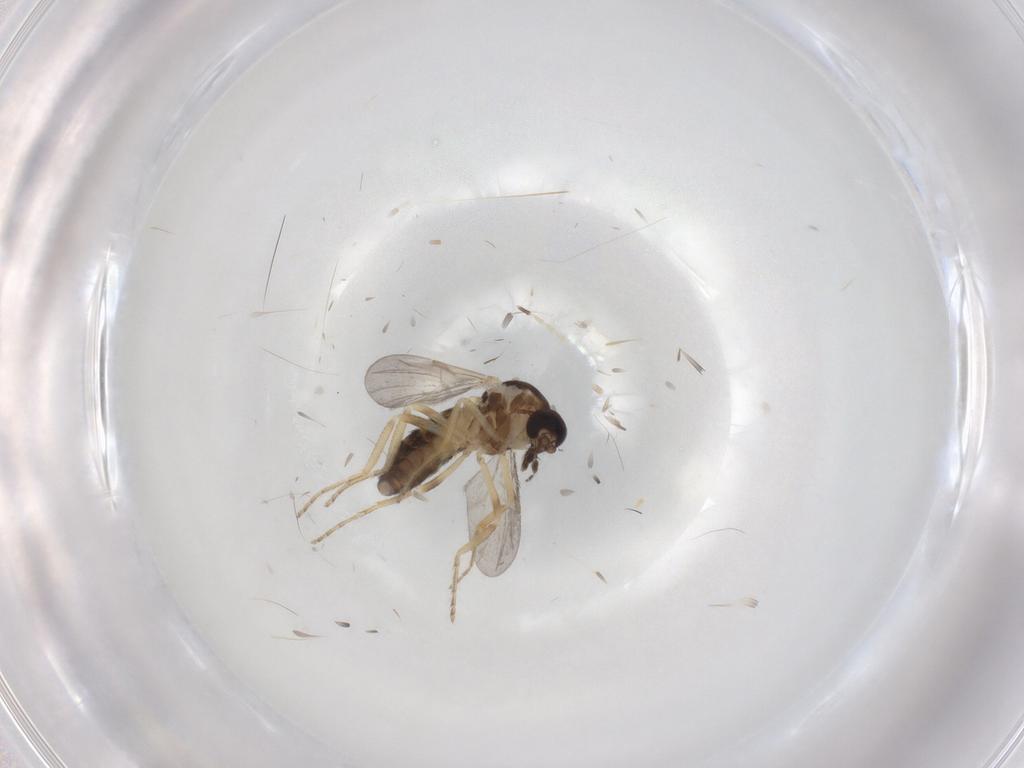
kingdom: Animalia
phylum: Arthropoda
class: Insecta
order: Diptera
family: Ceratopogonidae
